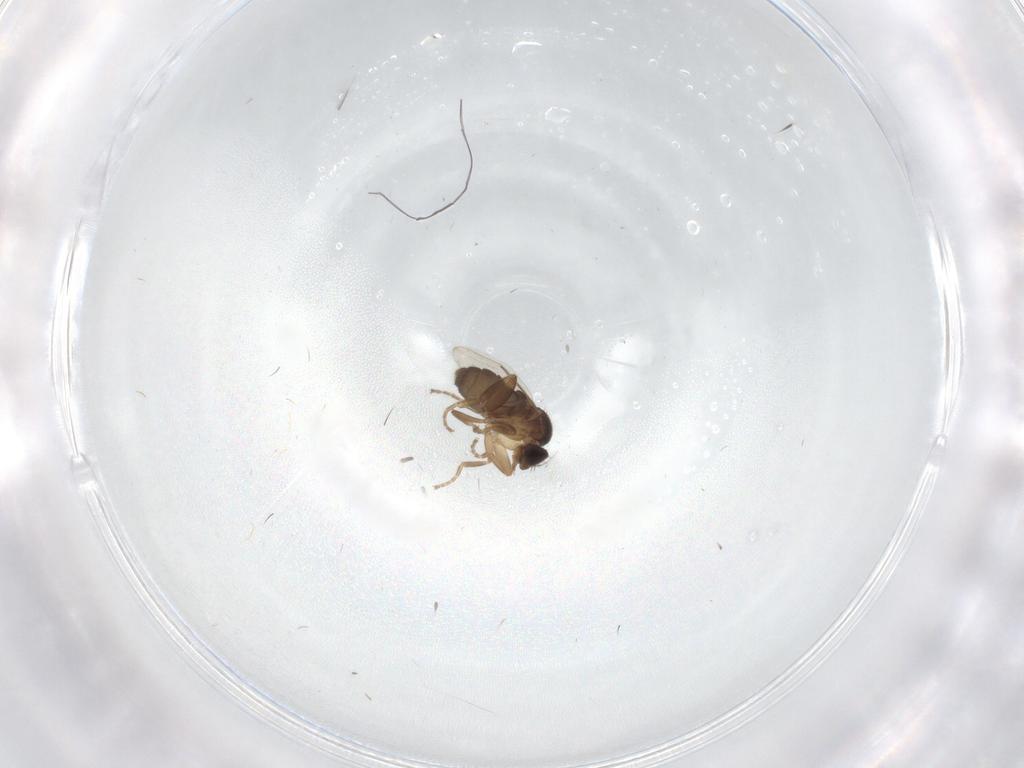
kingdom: Animalia
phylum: Arthropoda
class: Insecta
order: Diptera
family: Phoridae
